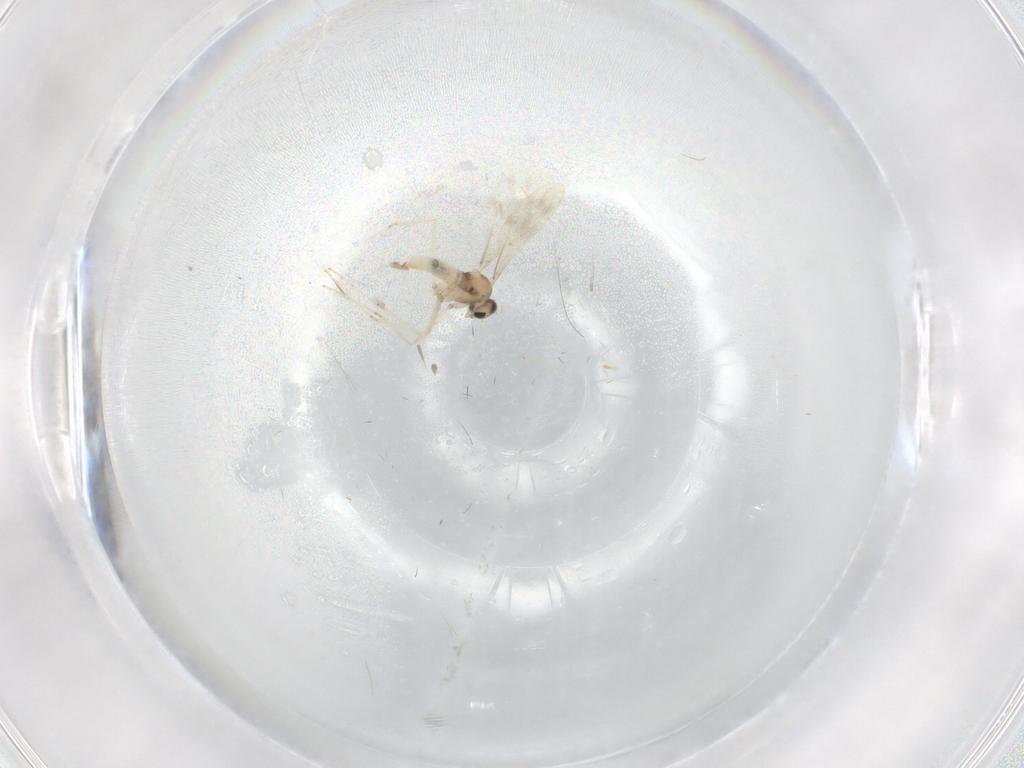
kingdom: Animalia
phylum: Arthropoda
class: Insecta
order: Diptera
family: Cecidomyiidae
